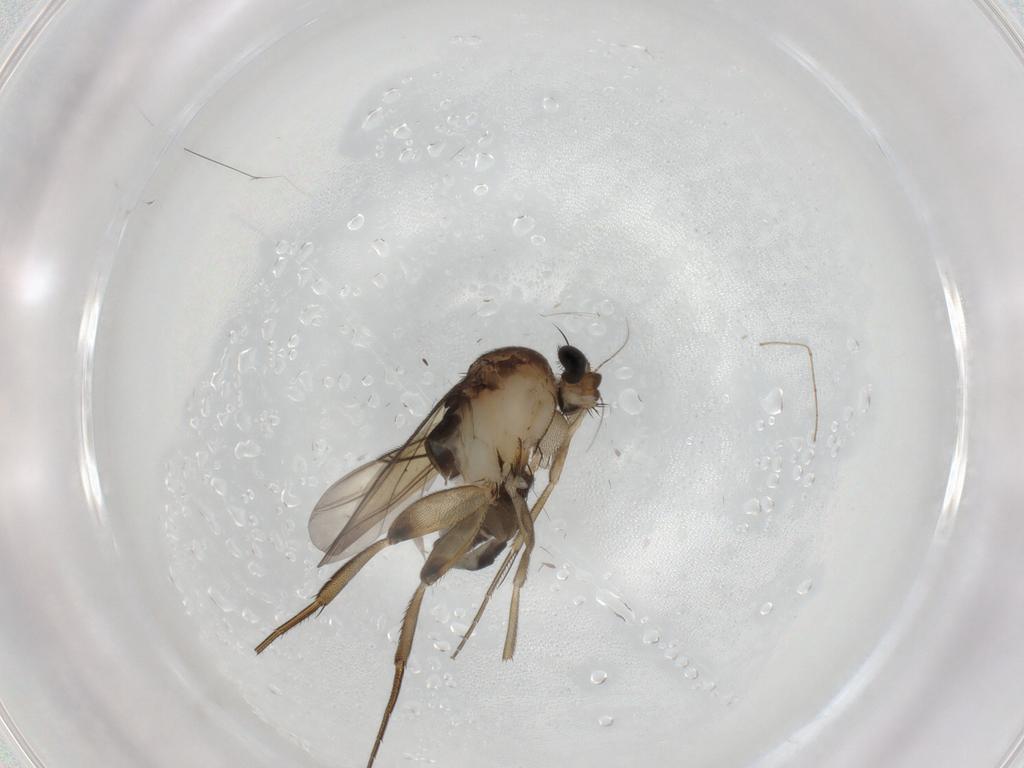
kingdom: Animalia
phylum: Arthropoda
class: Insecta
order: Diptera
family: Phoridae
